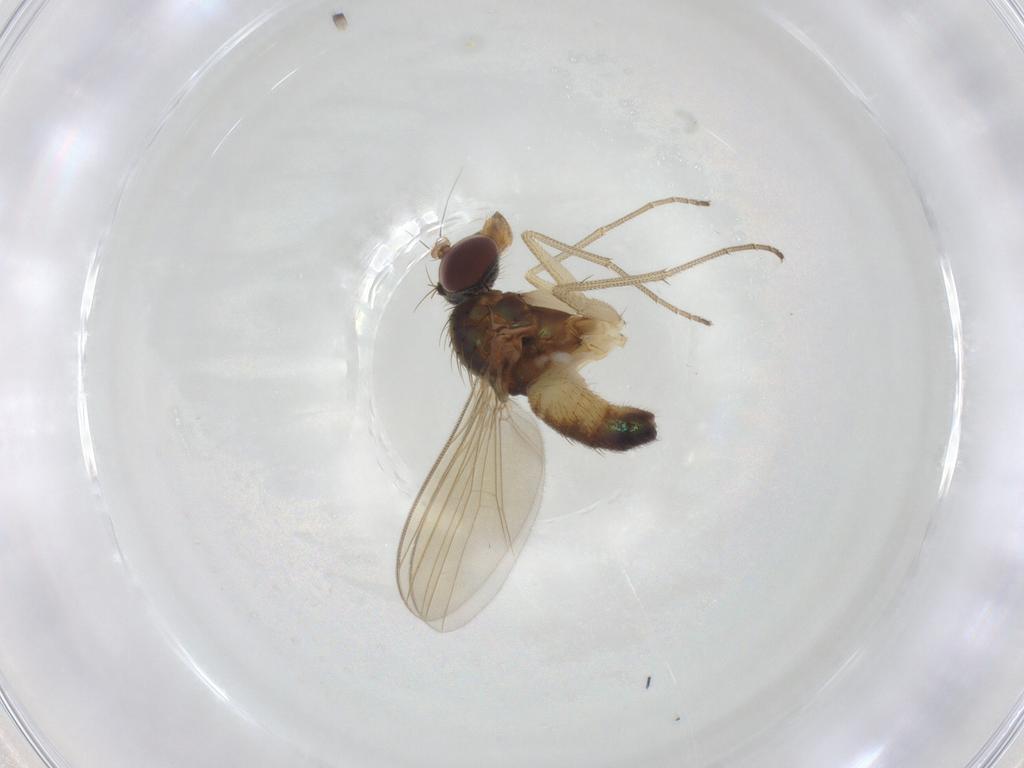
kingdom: Animalia
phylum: Arthropoda
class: Insecta
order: Diptera
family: Dolichopodidae
